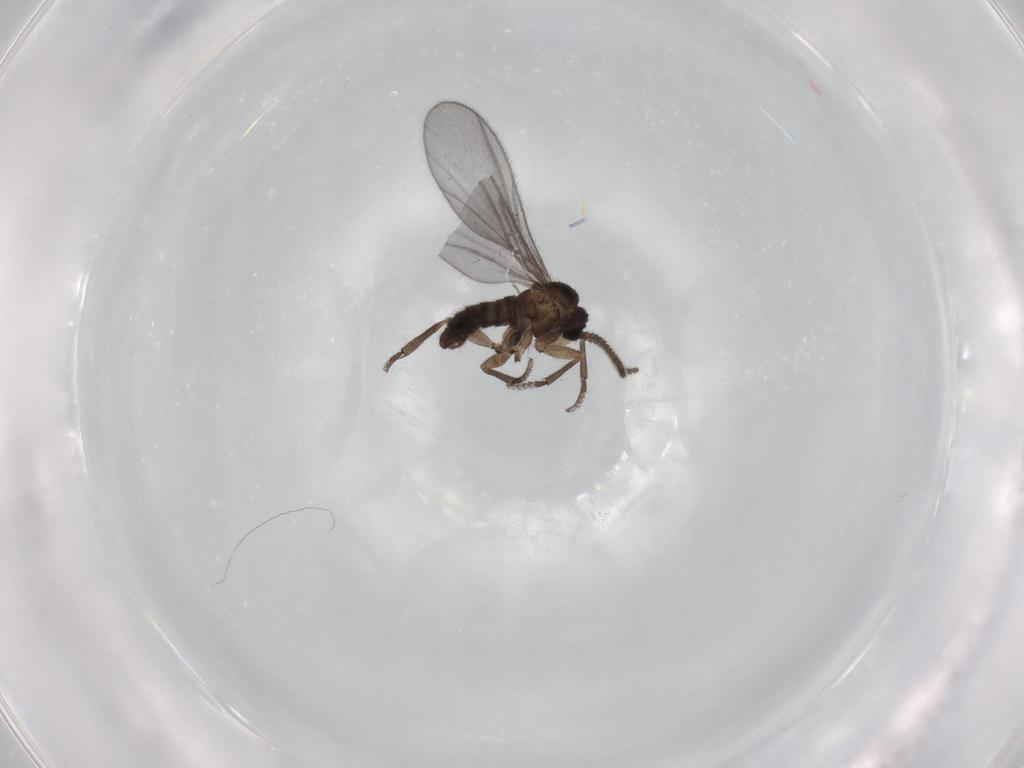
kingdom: Animalia
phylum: Arthropoda
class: Insecta
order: Diptera
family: Sciaridae
